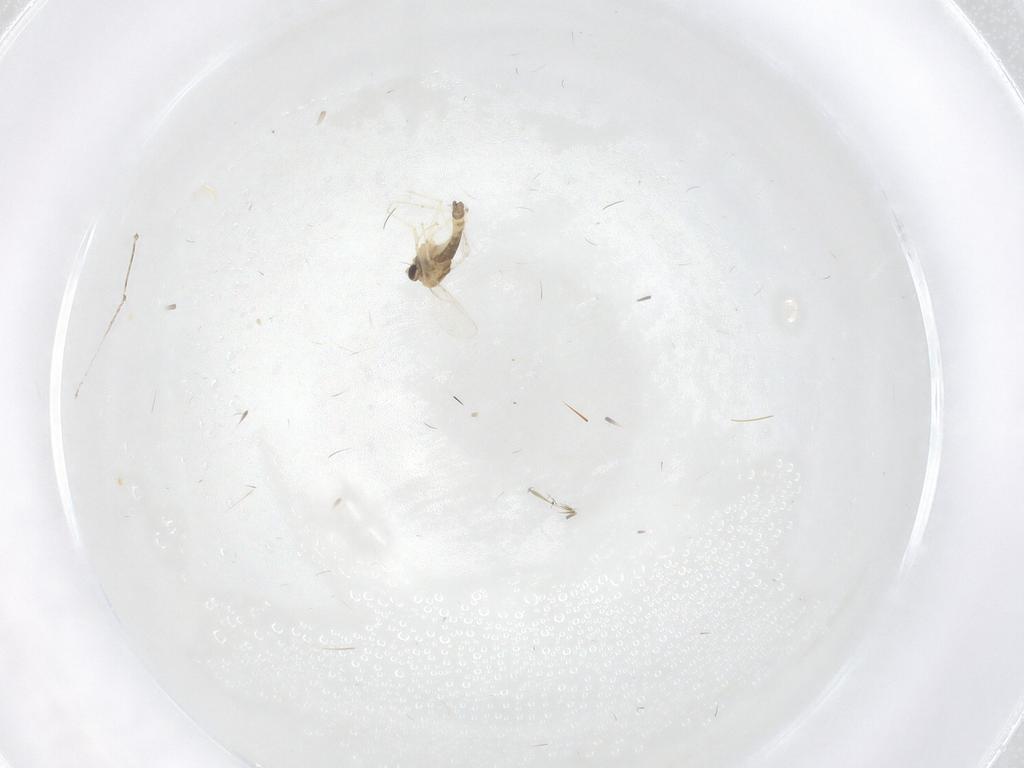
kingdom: Animalia
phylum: Arthropoda
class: Insecta
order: Diptera
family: Chironomidae
